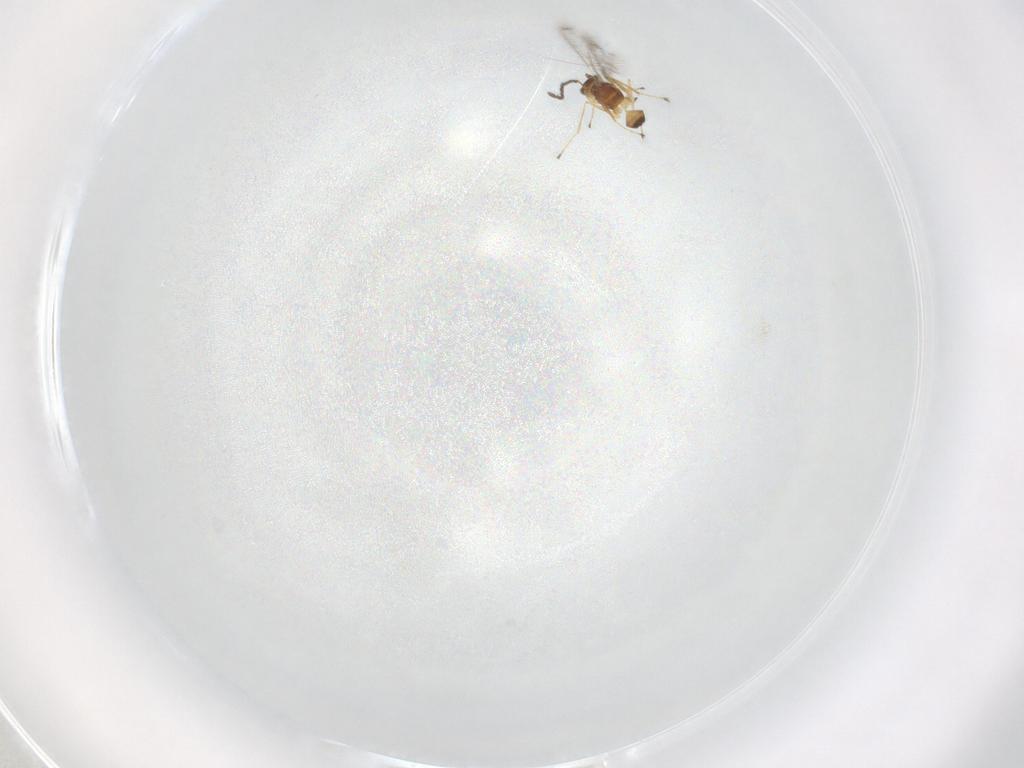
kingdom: Animalia
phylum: Arthropoda
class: Insecta
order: Hymenoptera
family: Mymaridae
